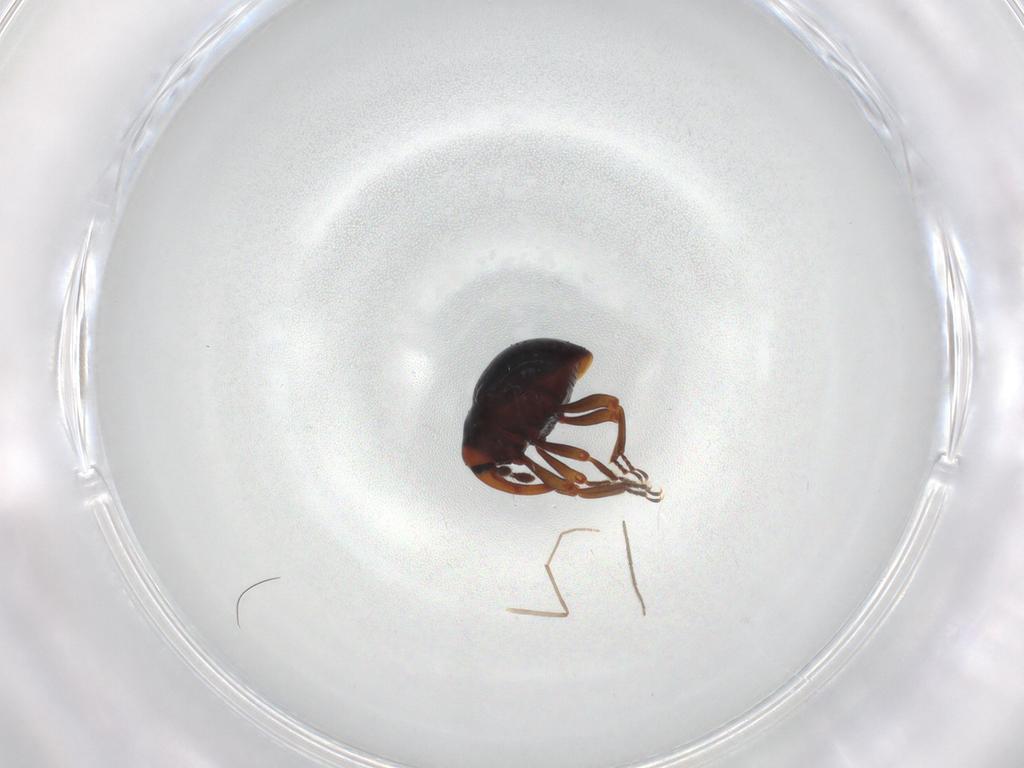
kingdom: Animalia
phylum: Arthropoda
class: Insecta
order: Coleoptera
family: Curculionidae
